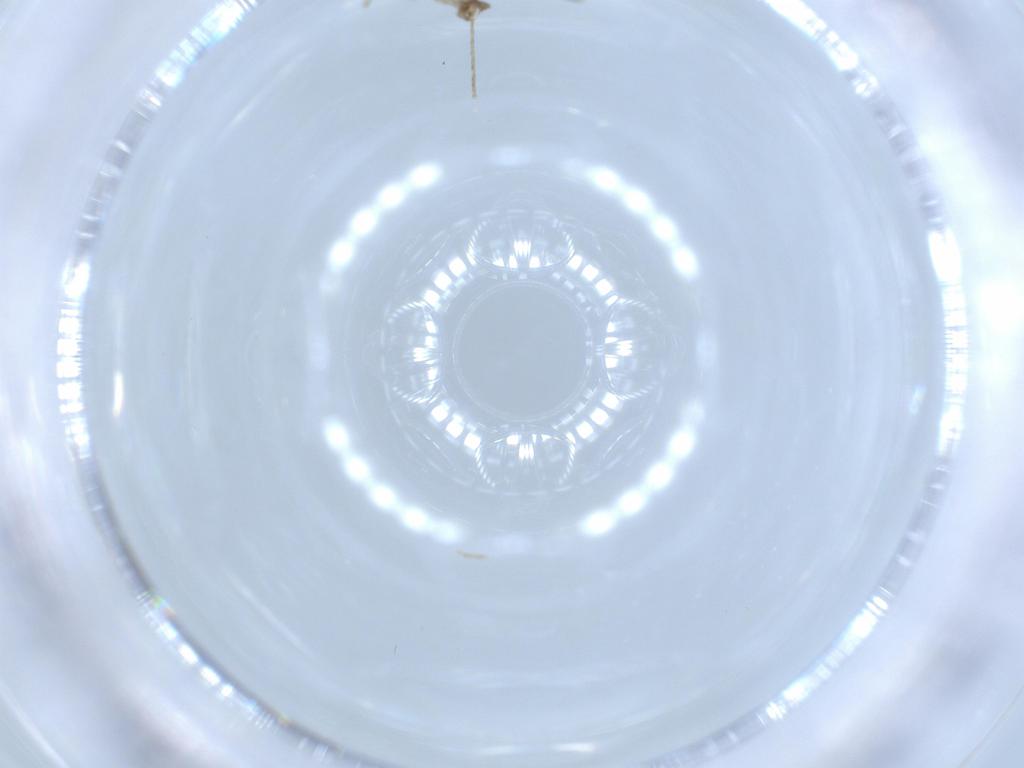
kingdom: Animalia
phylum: Arthropoda
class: Insecta
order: Diptera
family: Psychodidae
